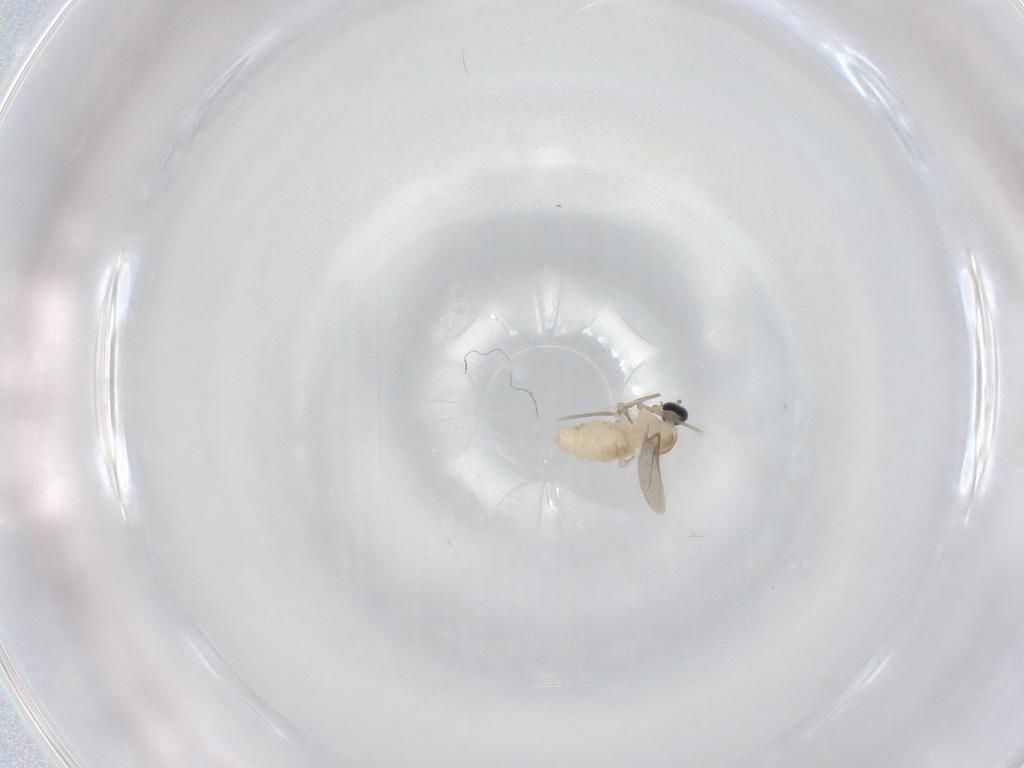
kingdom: Animalia
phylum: Arthropoda
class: Insecta
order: Diptera
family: Cecidomyiidae
